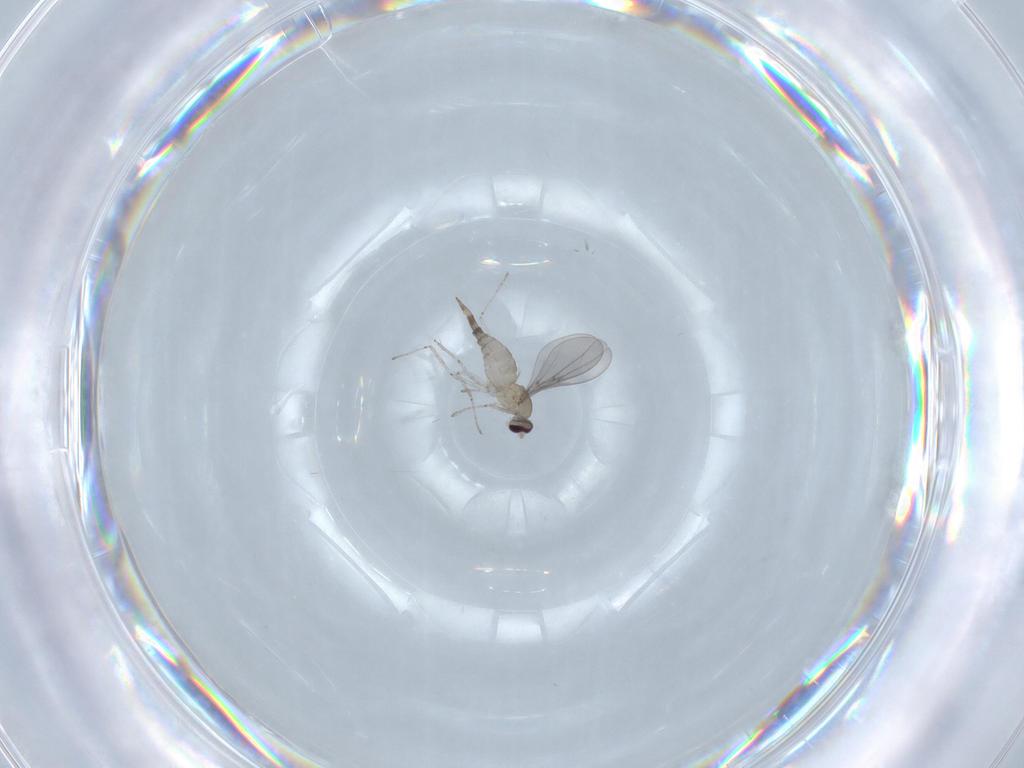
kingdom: Animalia
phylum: Arthropoda
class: Insecta
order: Diptera
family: Cecidomyiidae
